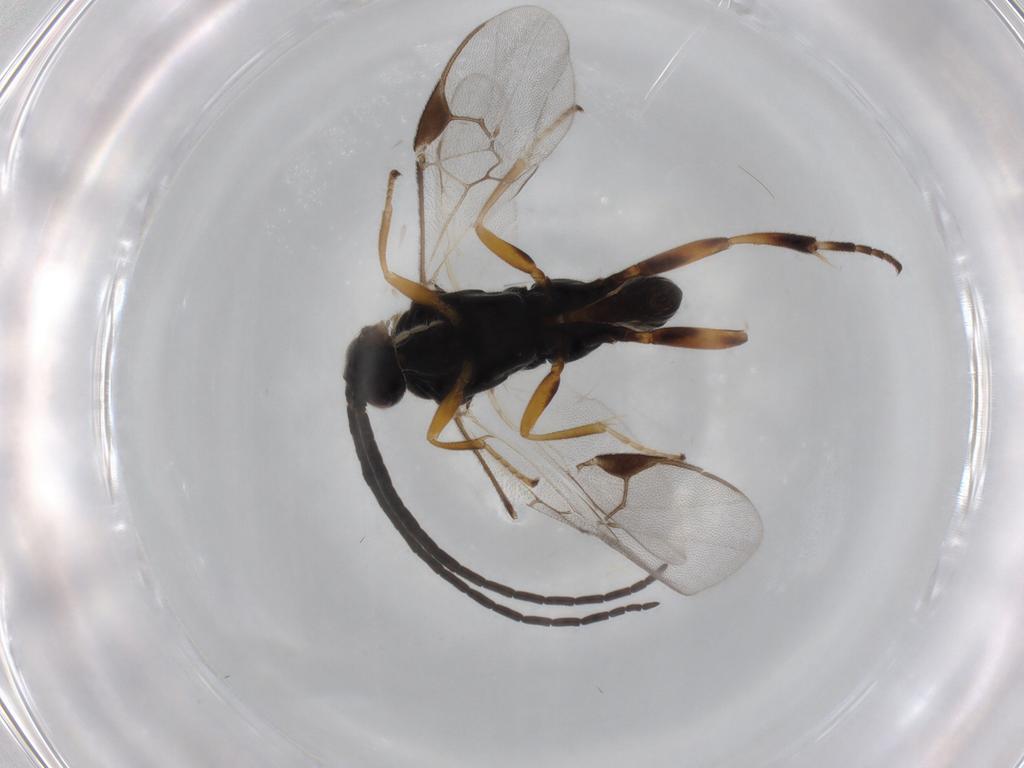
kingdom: Animalia
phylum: Arthropoda
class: Insecta
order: Hymenoptera
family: Braconidae
